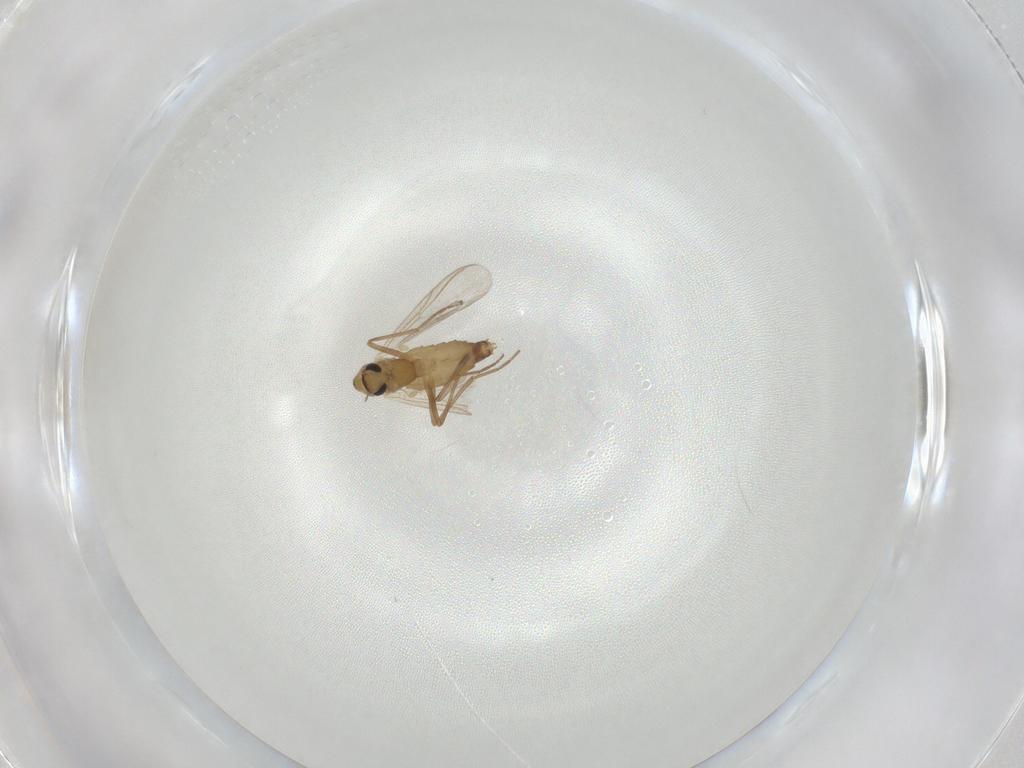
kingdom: Animalia
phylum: Arthropoda
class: Insecta
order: Diptera
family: Chironomidae
